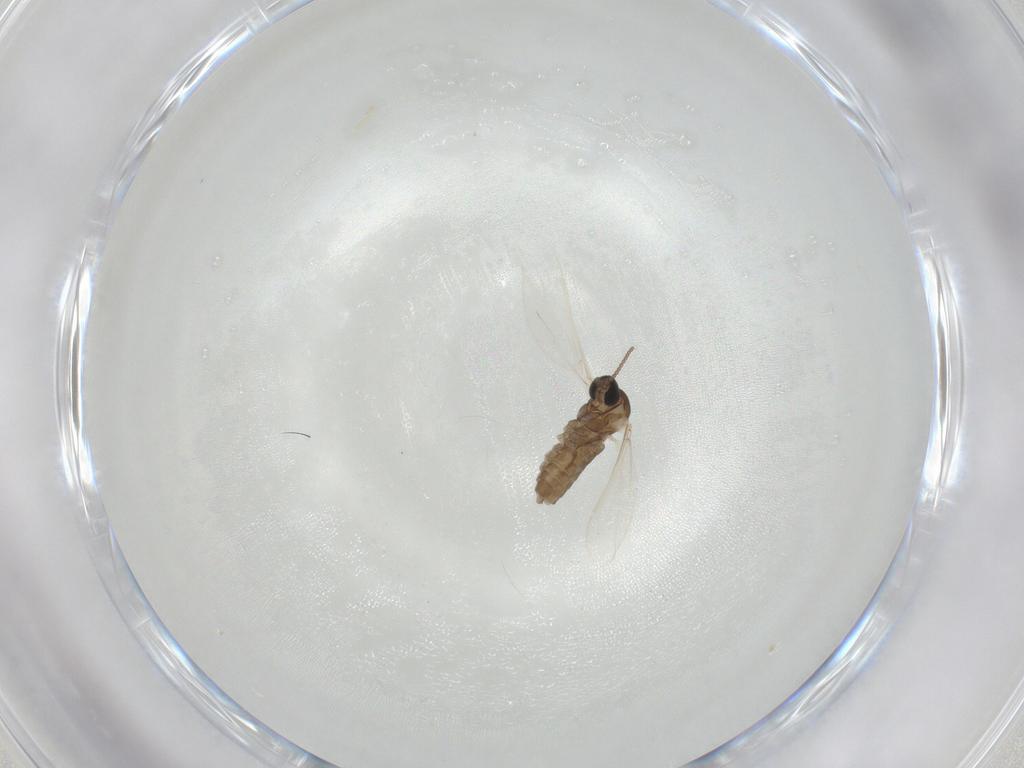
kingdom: Animalia
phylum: Arthropoda
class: Insecta
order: Diptera
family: Cecidomyiidae
